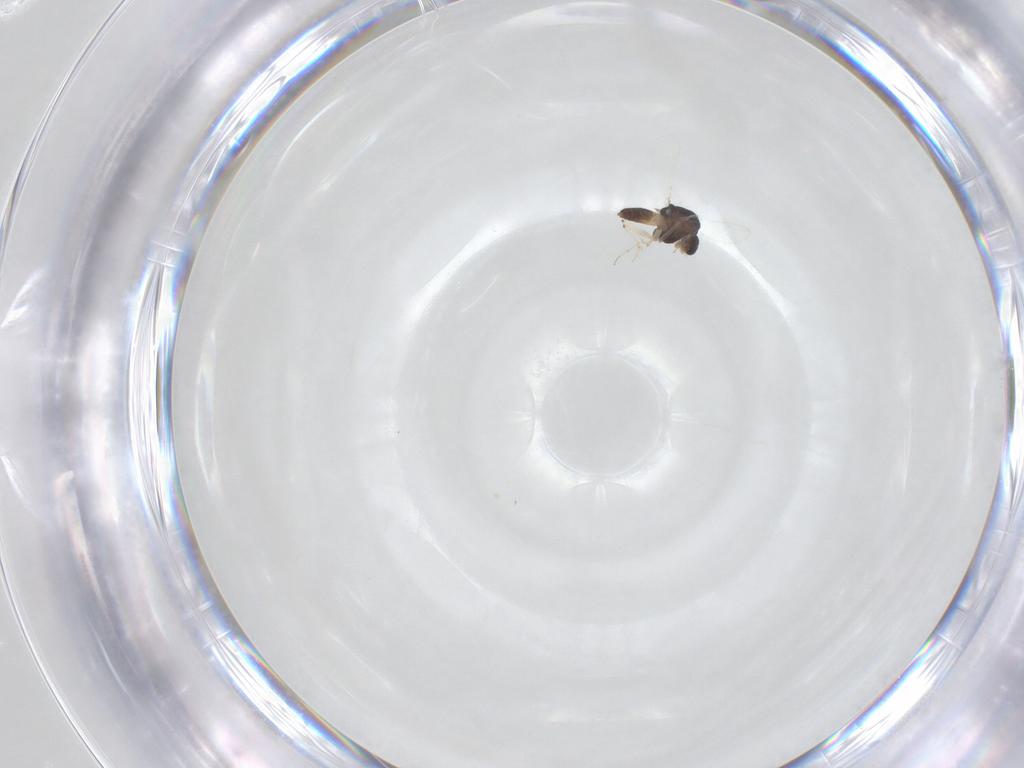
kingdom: Animalia
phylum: Arthropoda
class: Insecta
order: Diptera
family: Chironomidae
